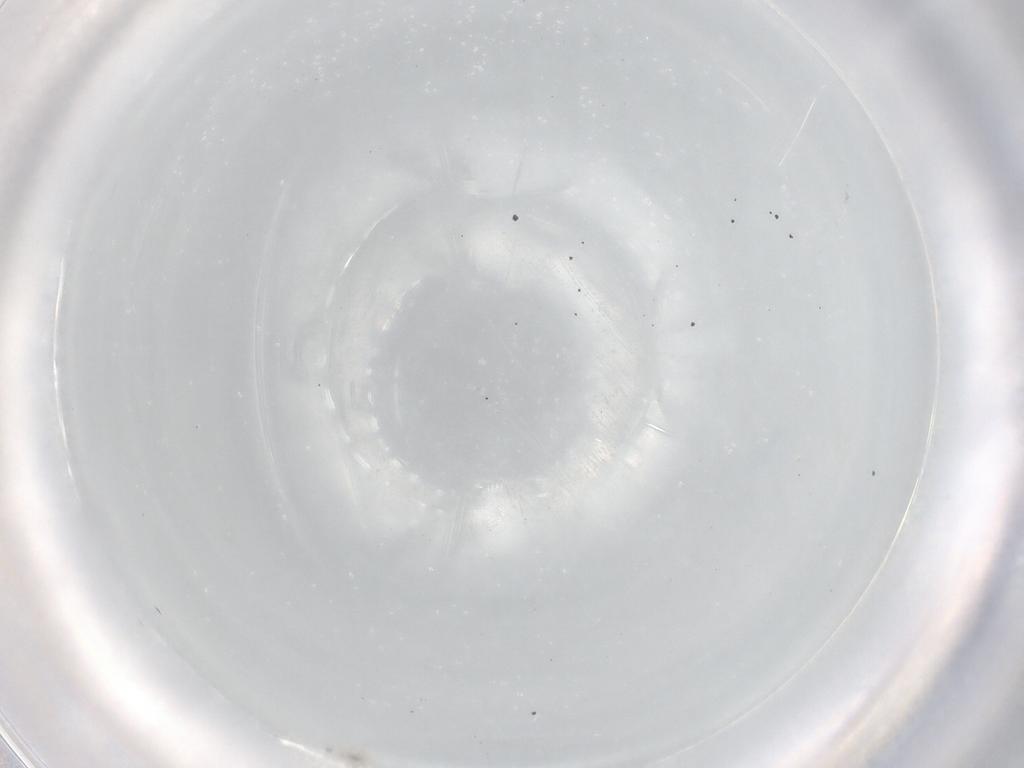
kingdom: Animalia
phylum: Arthropoda
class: Arachnida
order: Sarcoptiformes
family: Tegoribatidae
